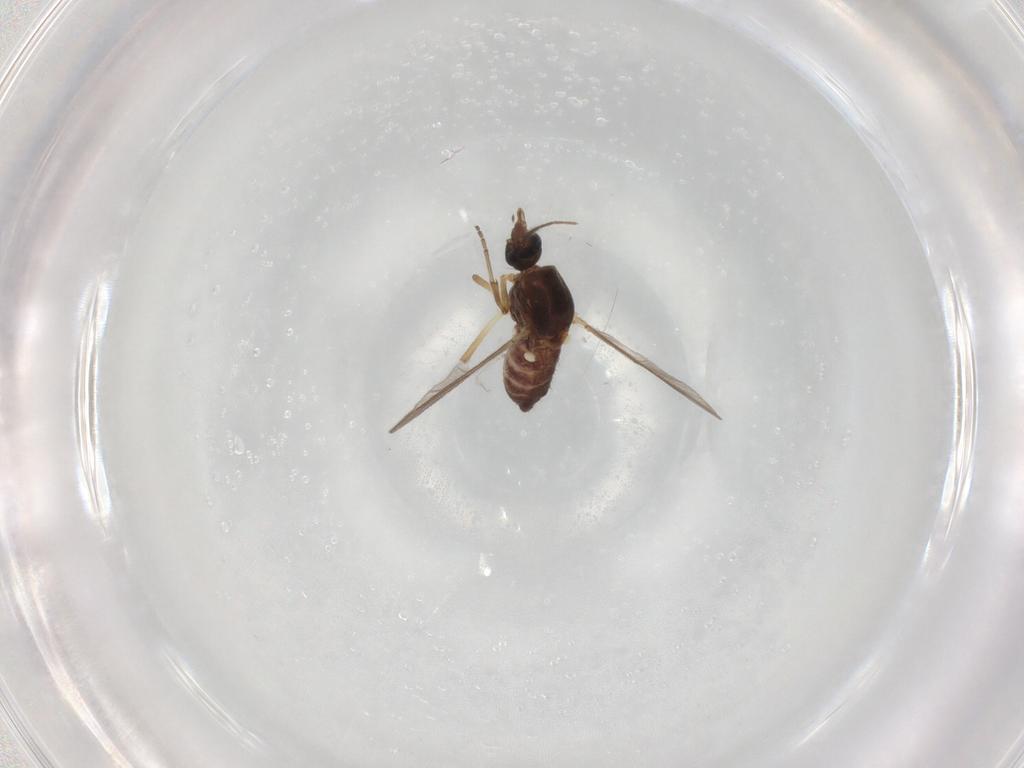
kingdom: Animalia
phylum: Arthropoda
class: Insecta
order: Diptera
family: Ceratopogonidae
